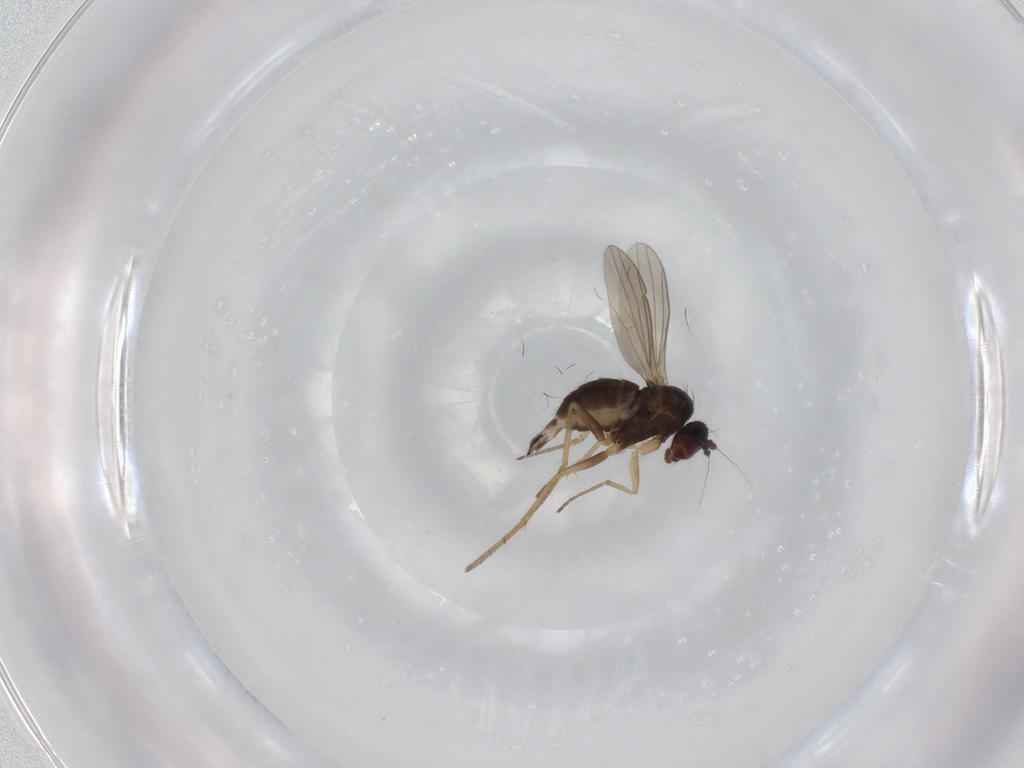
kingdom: Animalia
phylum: Arthropoda
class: Insecta
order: Diptera
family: Dolichopodidae
